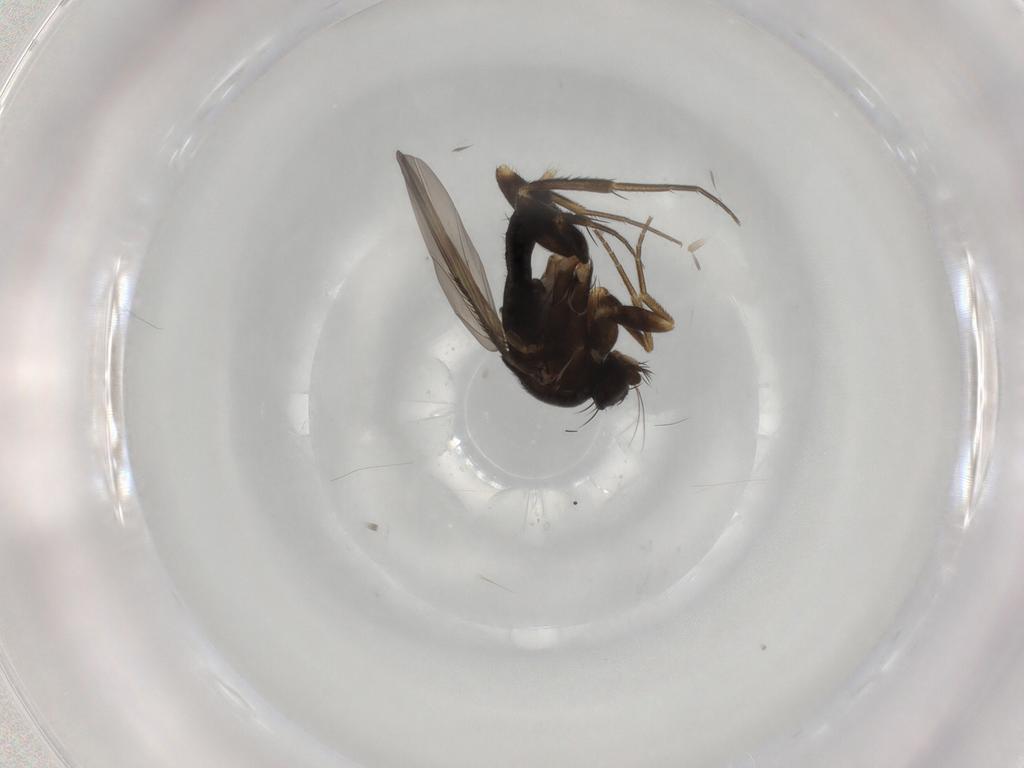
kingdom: Animalia
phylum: Arthropoda
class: Insecta
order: Diptera
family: Phoridae
